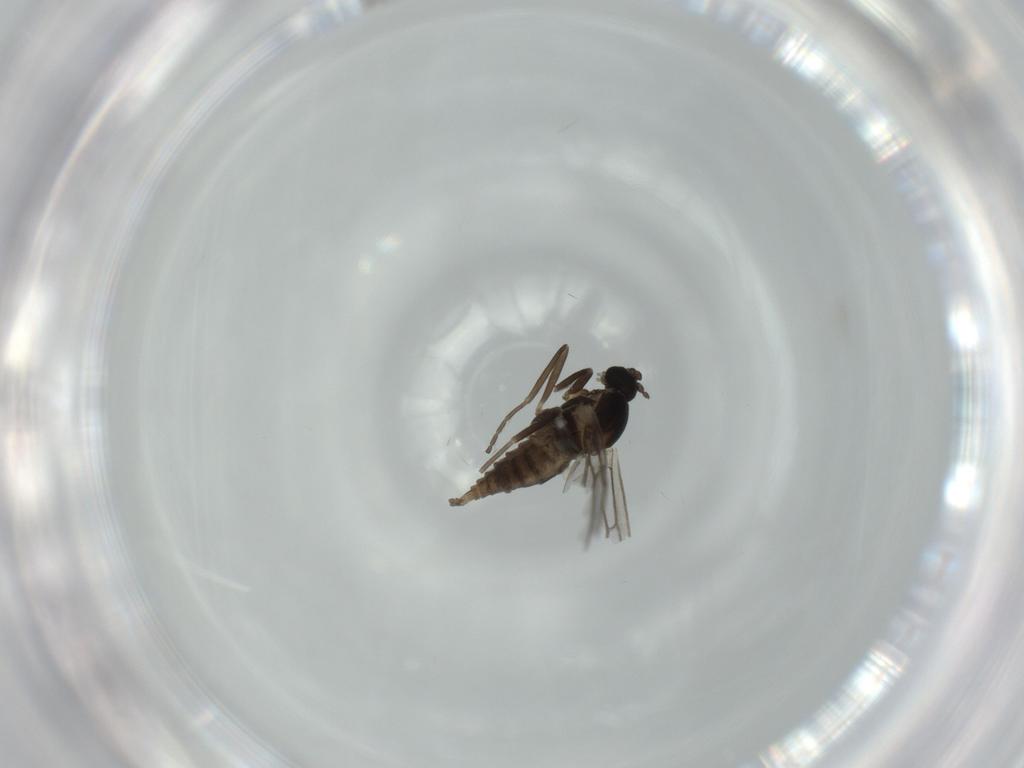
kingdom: Animalia
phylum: Arthropoda
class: Insecta
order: Diptera
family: Cecidomyiidae
